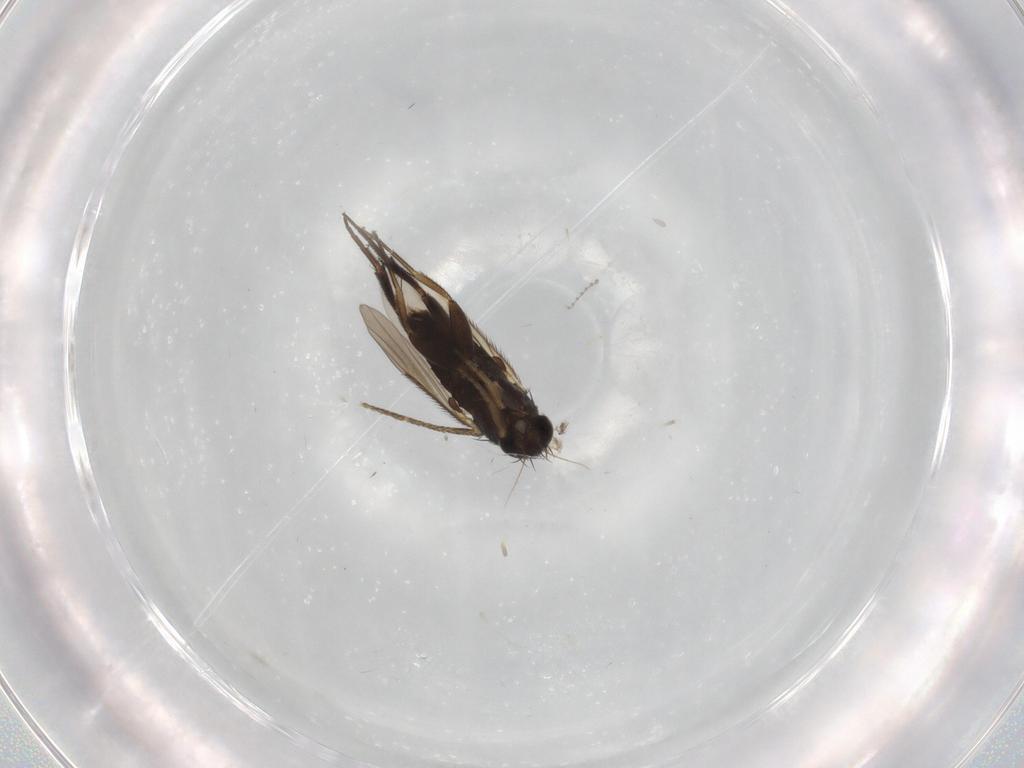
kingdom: Animalia
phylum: Arthropoda
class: Insecta
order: Diptera
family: Phoridae
